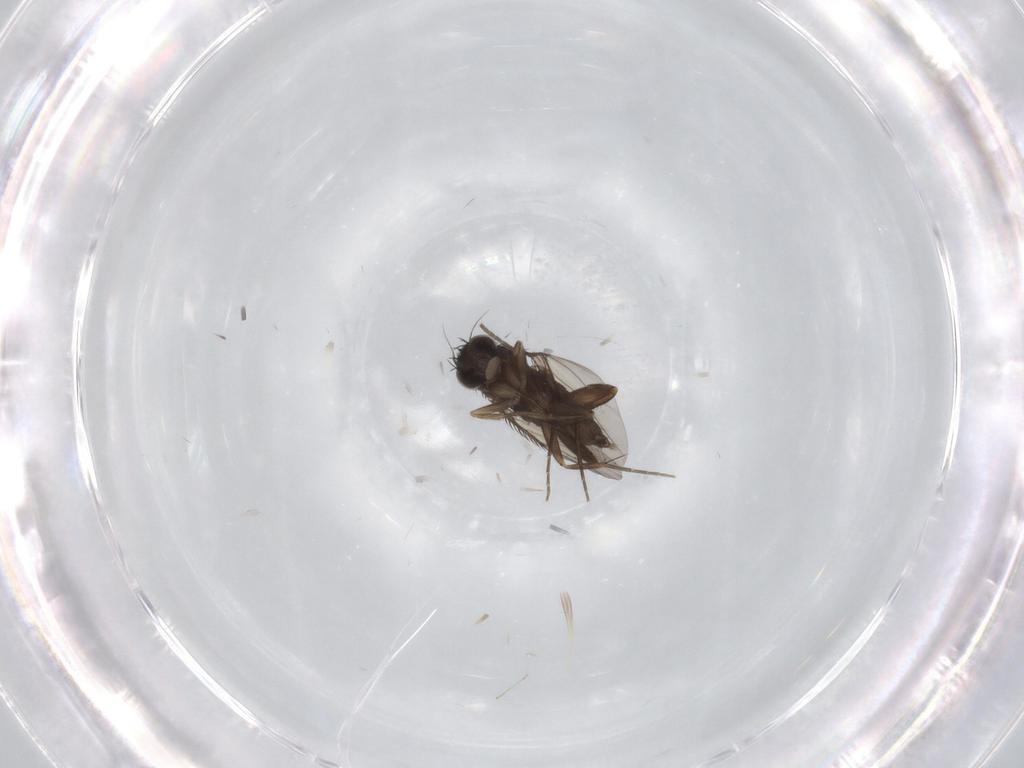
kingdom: Animalia
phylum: Arthropoda
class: Insecta
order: Diptera
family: Phoridae
